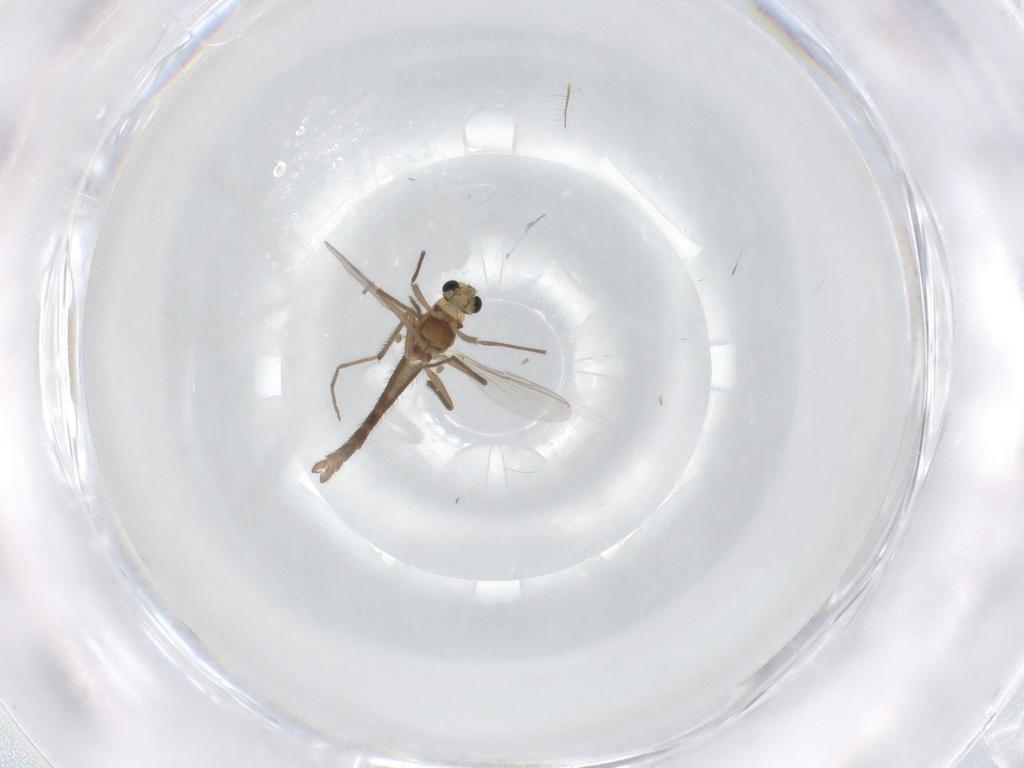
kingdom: Animalia
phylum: Arthropoda
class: Insecta
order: Diptera
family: Chironomidae
